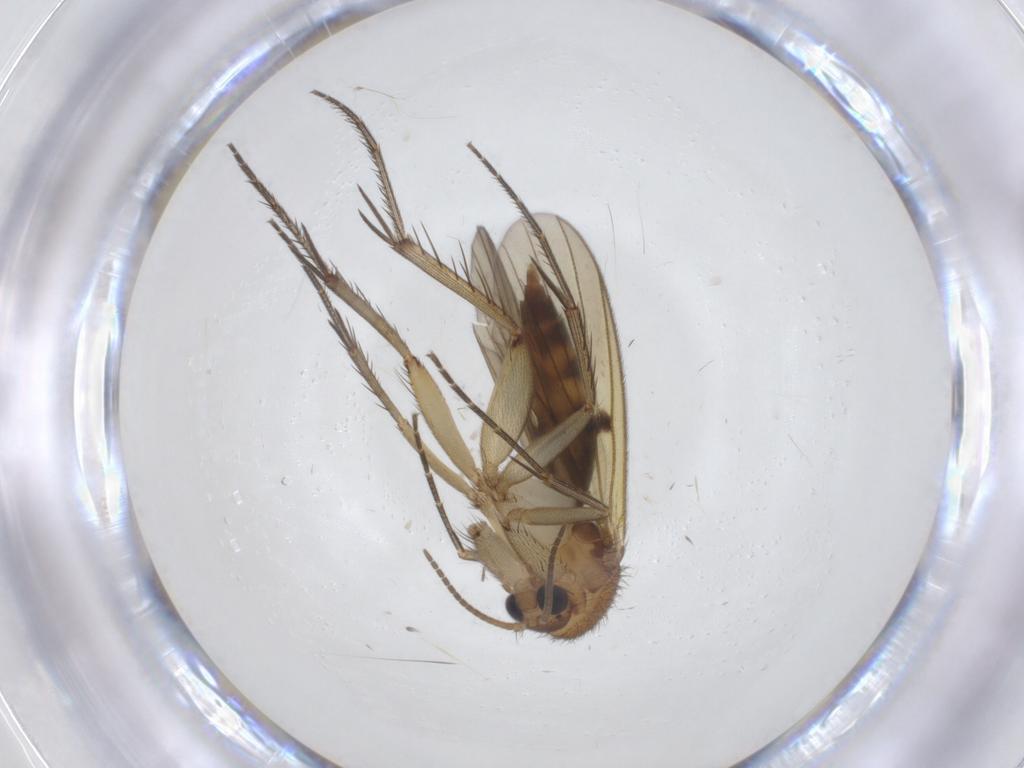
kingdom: Animalia
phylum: Arthropoda
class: Insecta
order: Diptera
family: Mycetophilidae
